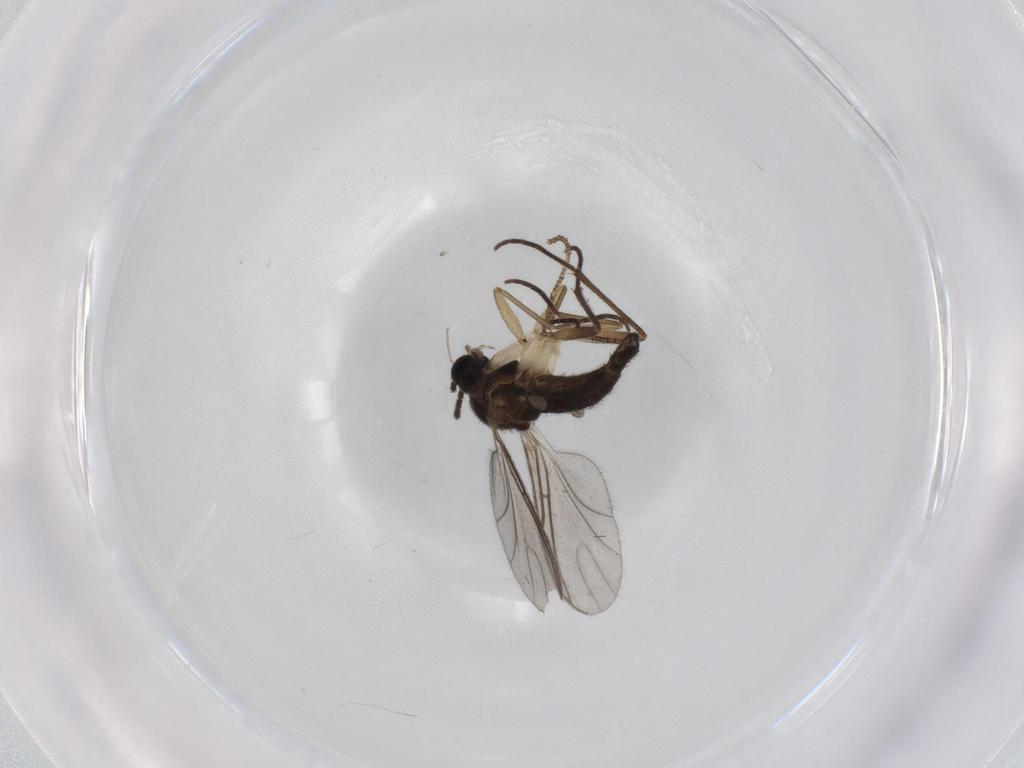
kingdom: Animalia
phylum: Arthropoda
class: Insecta
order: Diptera
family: Sciaridae
